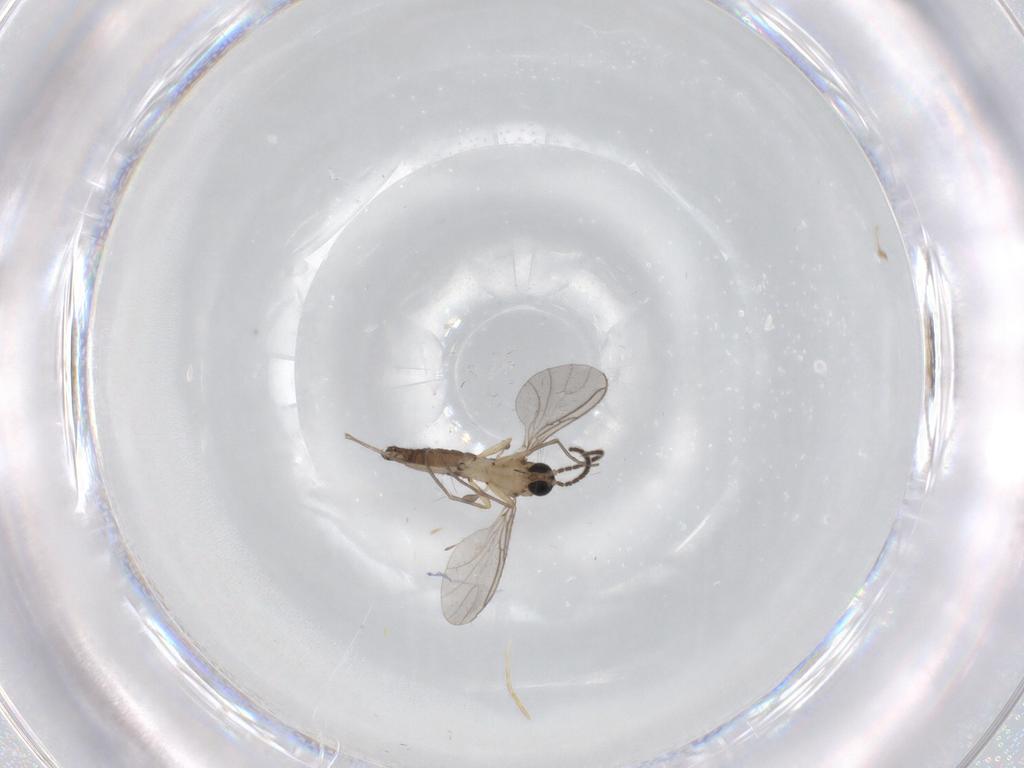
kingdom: Animalia
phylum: Arthropoda
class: Insecta
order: Diptera
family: Sciaridae
